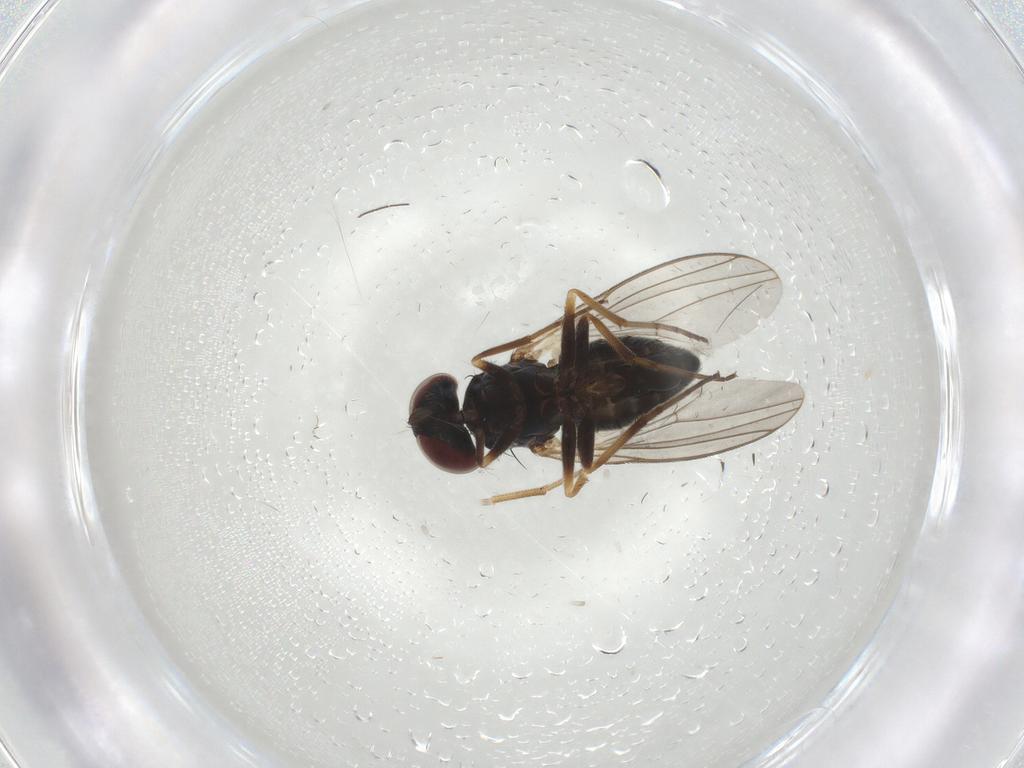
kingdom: Animalia
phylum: Arthropoda
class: Insecta
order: Diptera
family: Dolichopodidae
